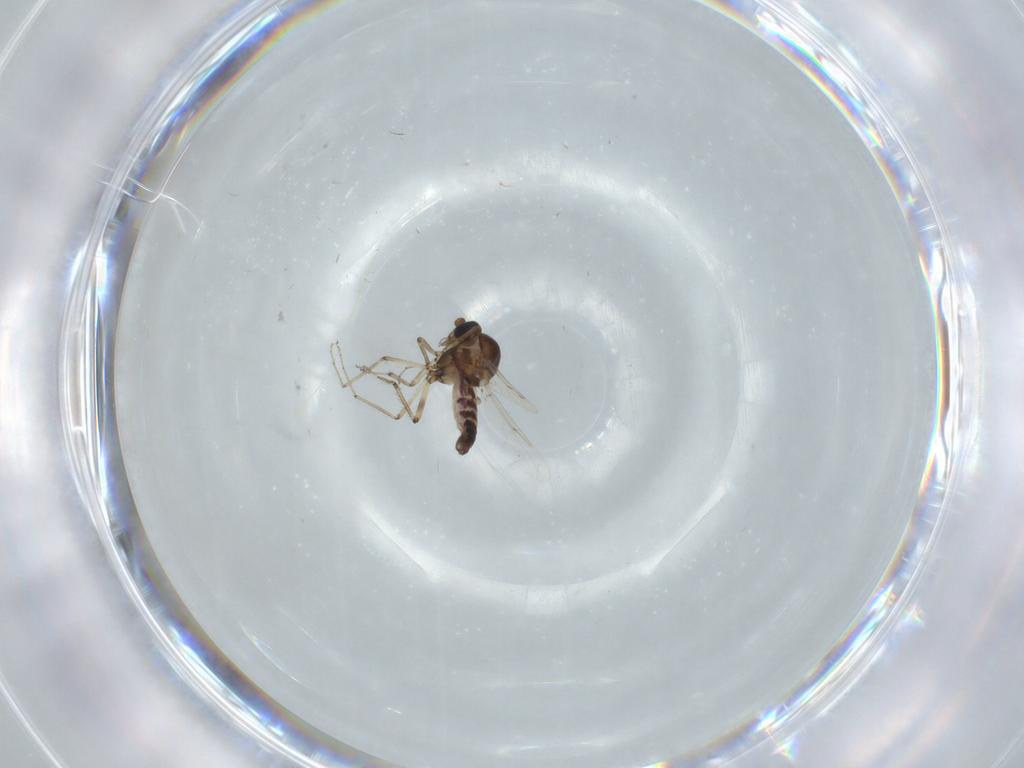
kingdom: Animalia
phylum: Arthropoda
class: Insecta
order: Diptera
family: Ceratopogonidae
